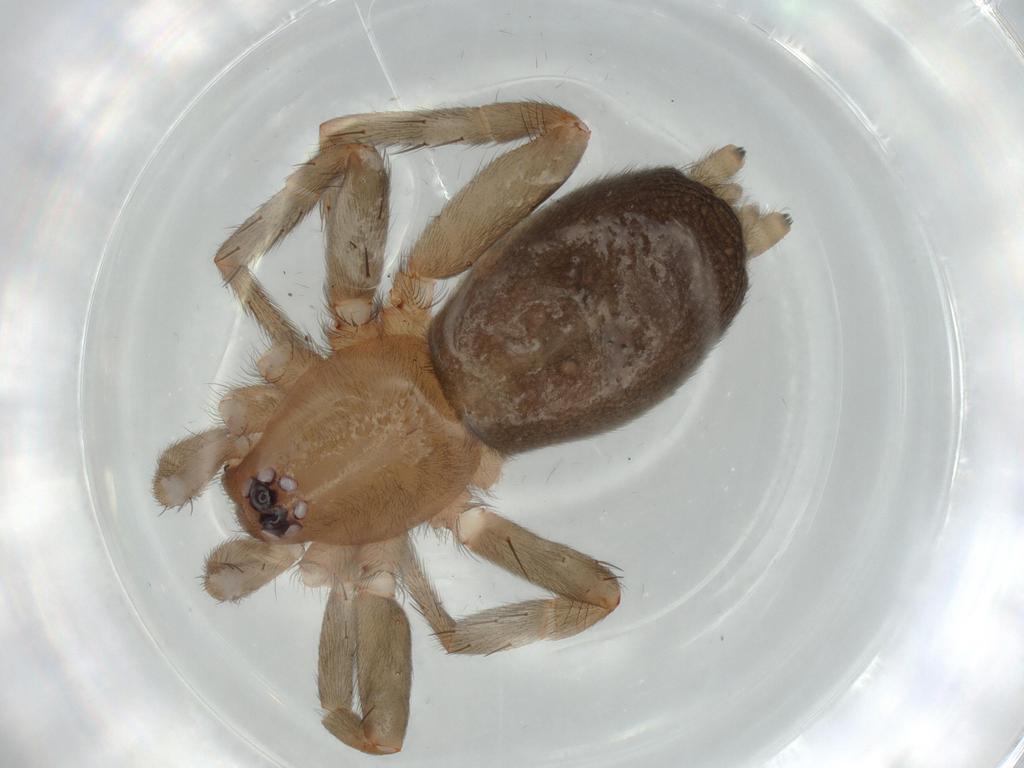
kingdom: Animalia
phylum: Arthropoda
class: Arachnida
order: Araneae
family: Gnaphosidae
